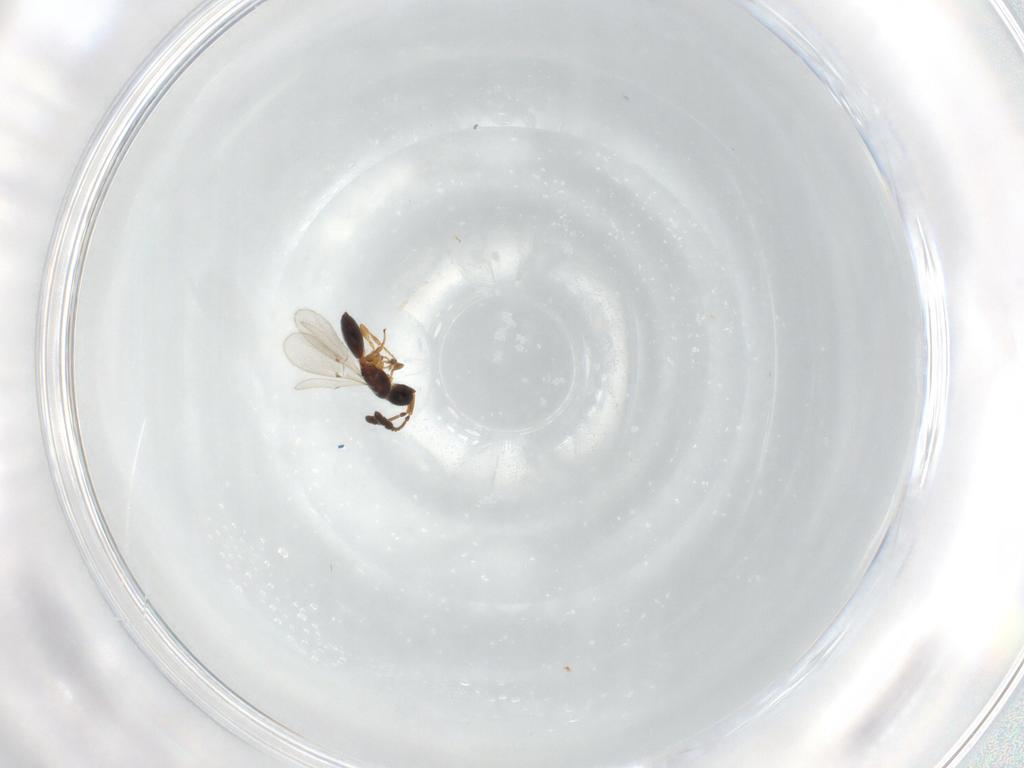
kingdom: Animalia
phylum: Arthropoda
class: Insecta
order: Hymenoptera
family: Diapriidae
